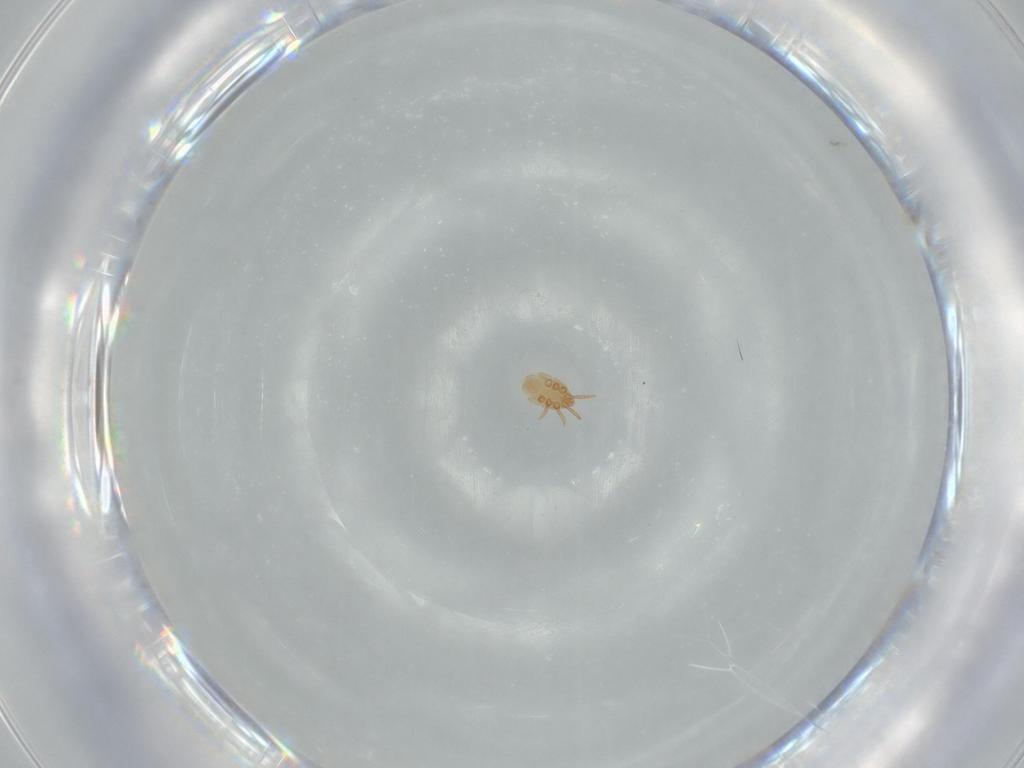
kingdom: Animalia
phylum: Arthropoda
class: Arachnida
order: Mesostigmata
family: Dinychidae
